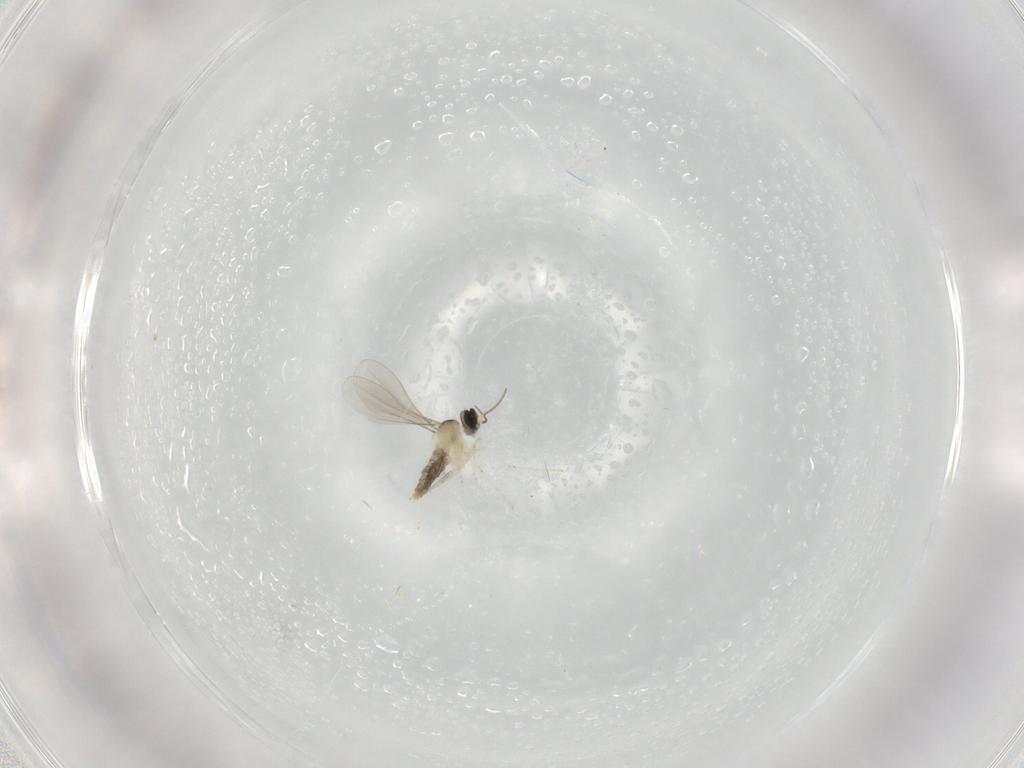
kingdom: Animalia
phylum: Arthropoda
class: Insecta
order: Diptera
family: Cecidomyiidae
